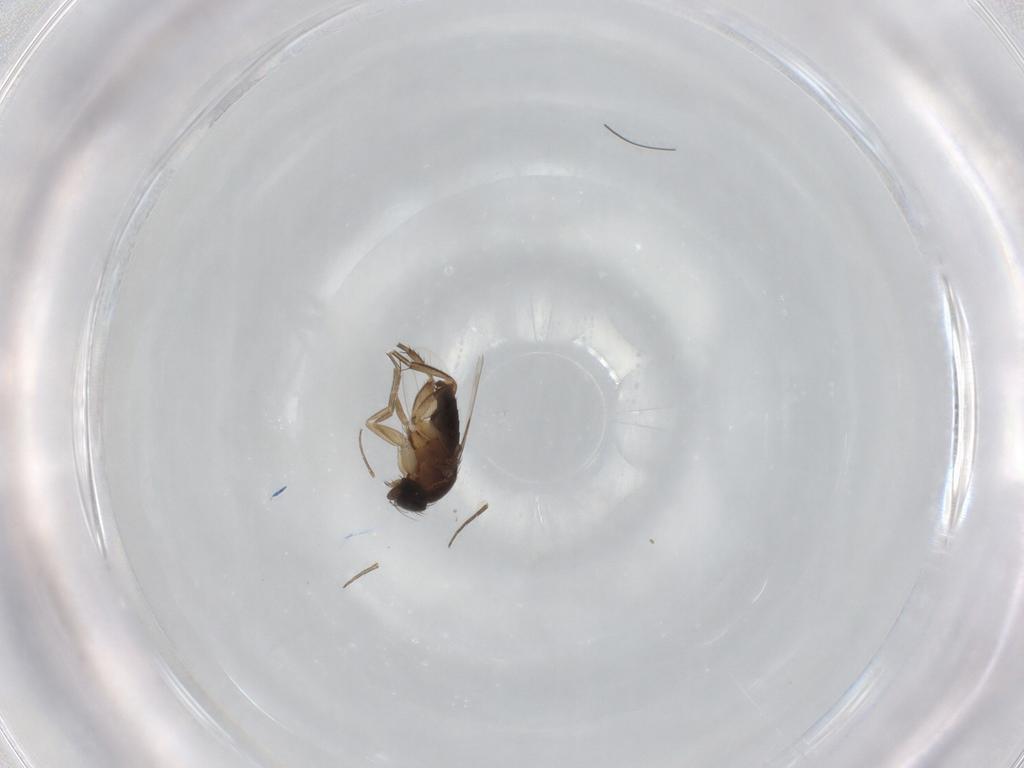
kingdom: Animalia
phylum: Arthropoda
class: Insecta
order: Diptera
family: Phoridae
